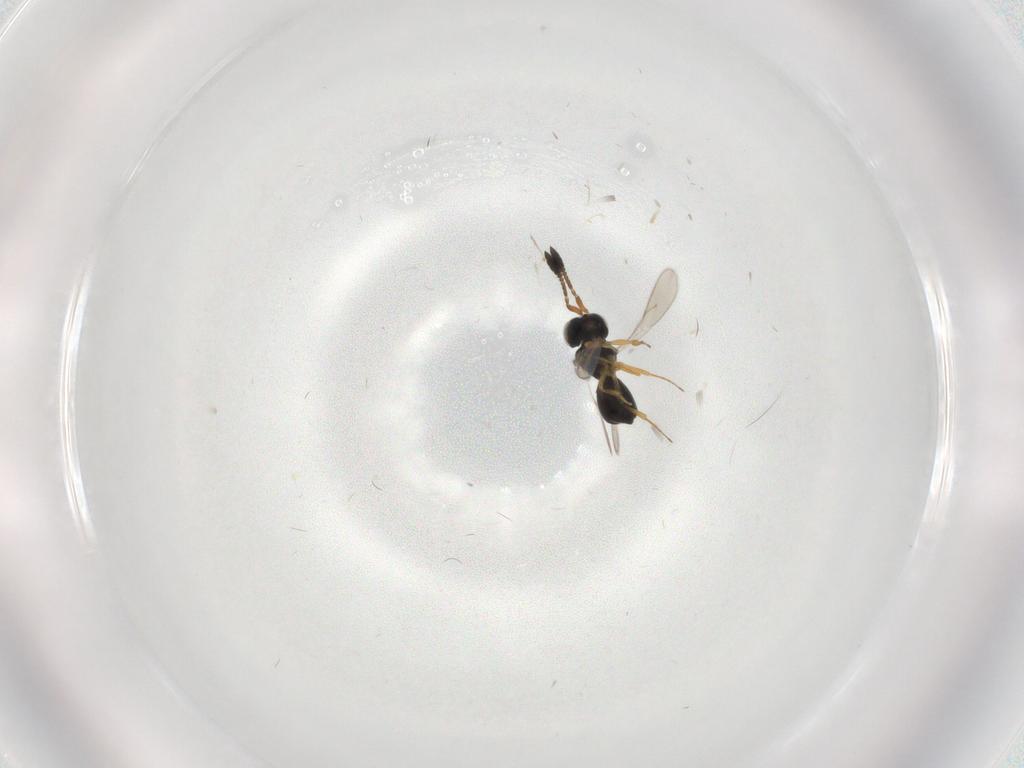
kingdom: Animalia
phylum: Arthropoda
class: Insecta
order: Hymenoptera
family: Scelionidae
